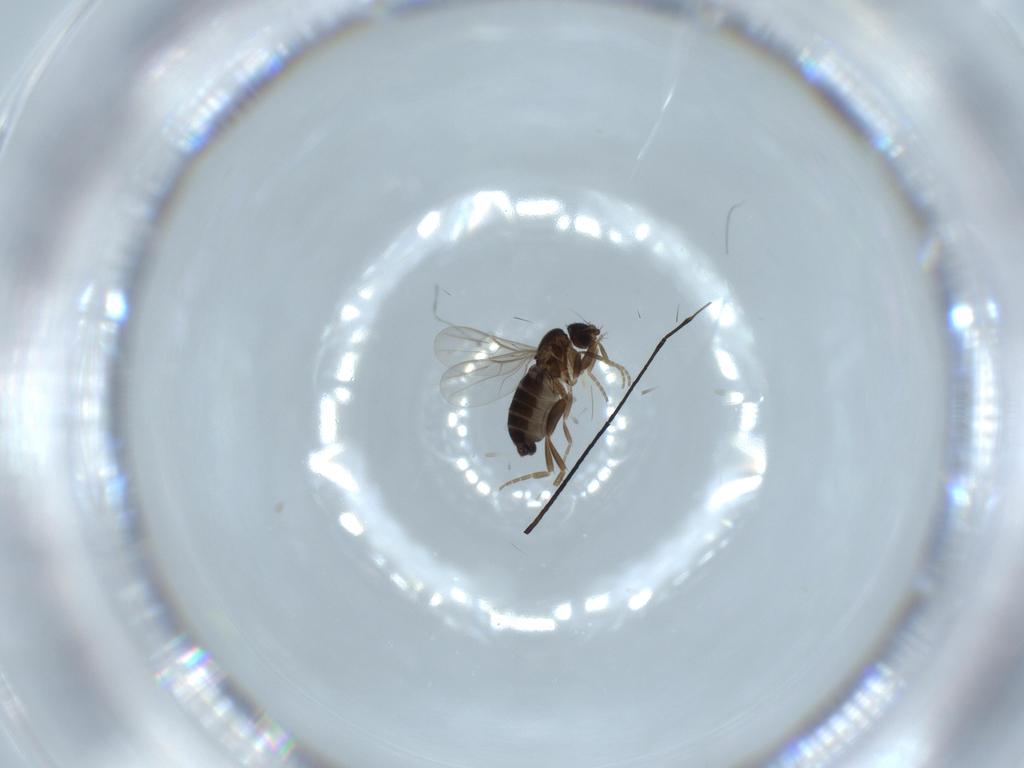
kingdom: Animalia
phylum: Arthropoda
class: Insecta
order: Diptera
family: Phoridae
